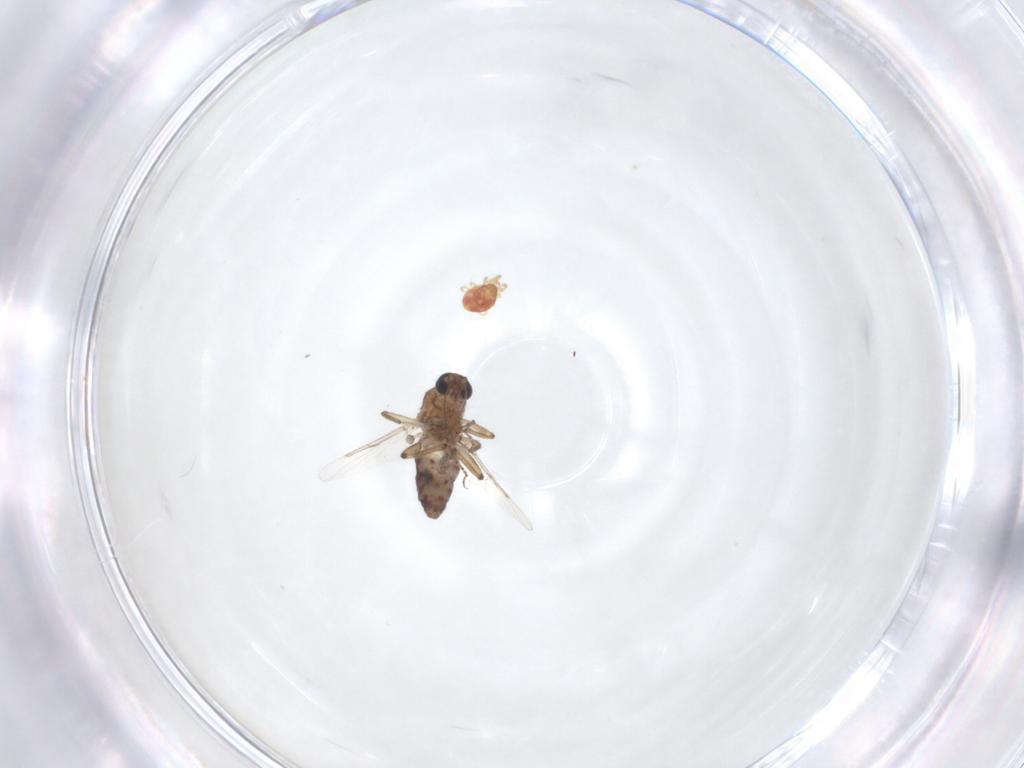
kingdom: Animalia
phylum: Arthropoda
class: Insecta
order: Diptera
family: Ceratopogonidae
